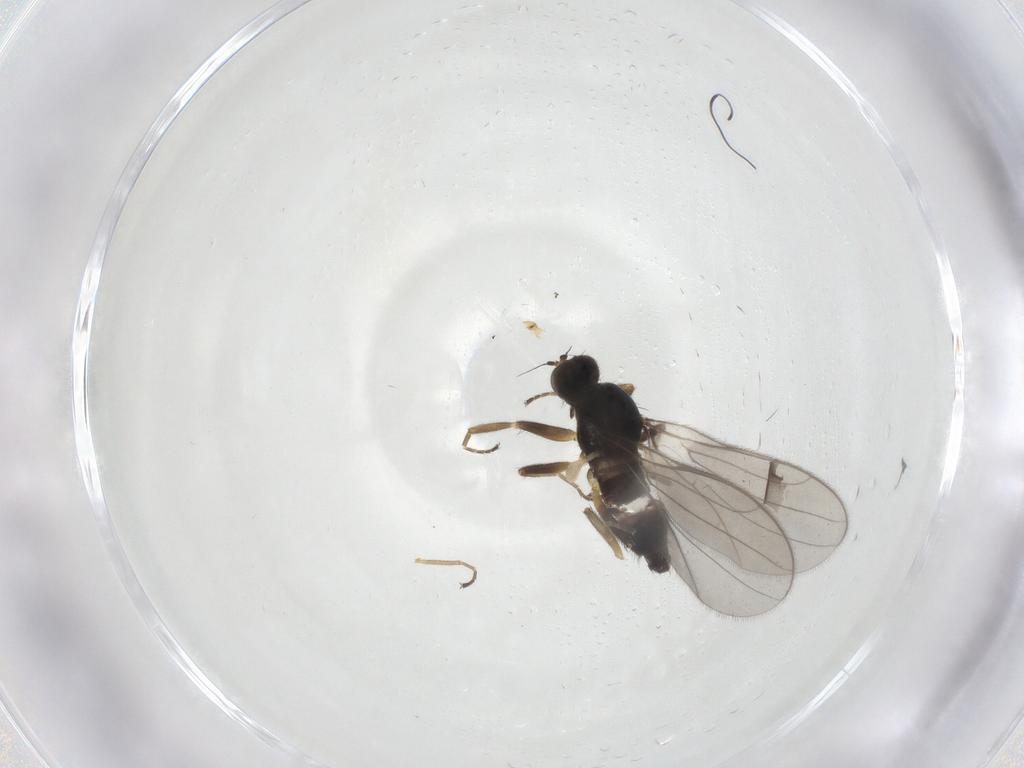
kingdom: Animalia
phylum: Arthropoda
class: Insecta
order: Diptera
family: Hybotidae
